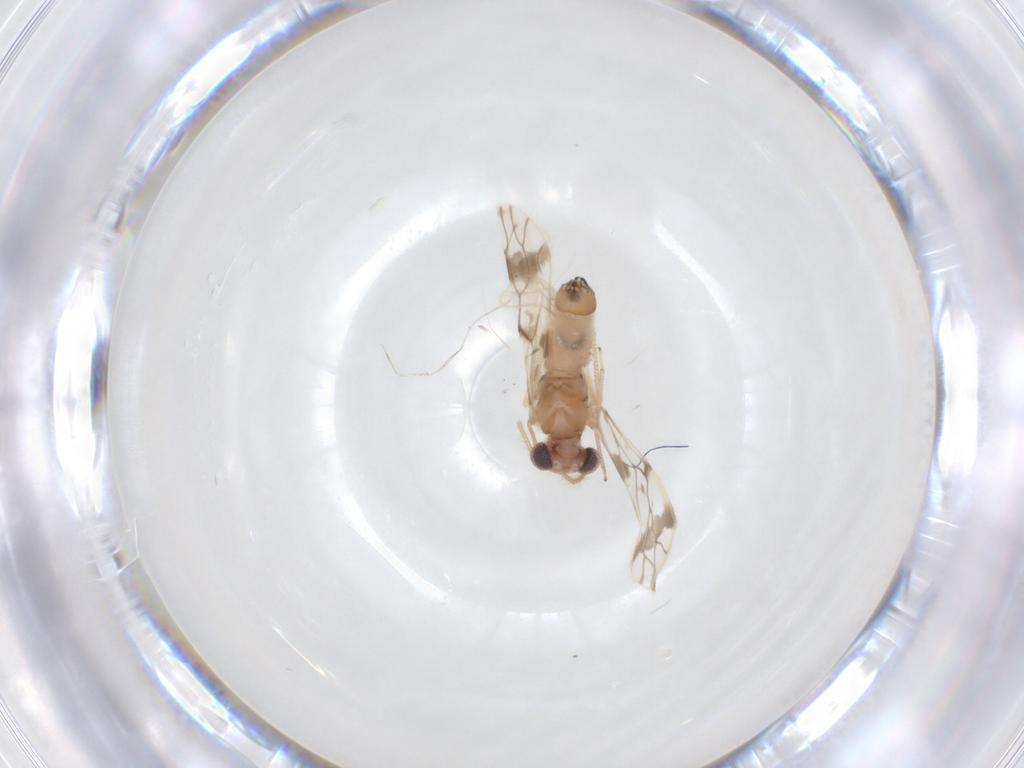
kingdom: Animalia
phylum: Arthropoda
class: Insecta
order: Psocodea
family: Pseudocaeciliidae
